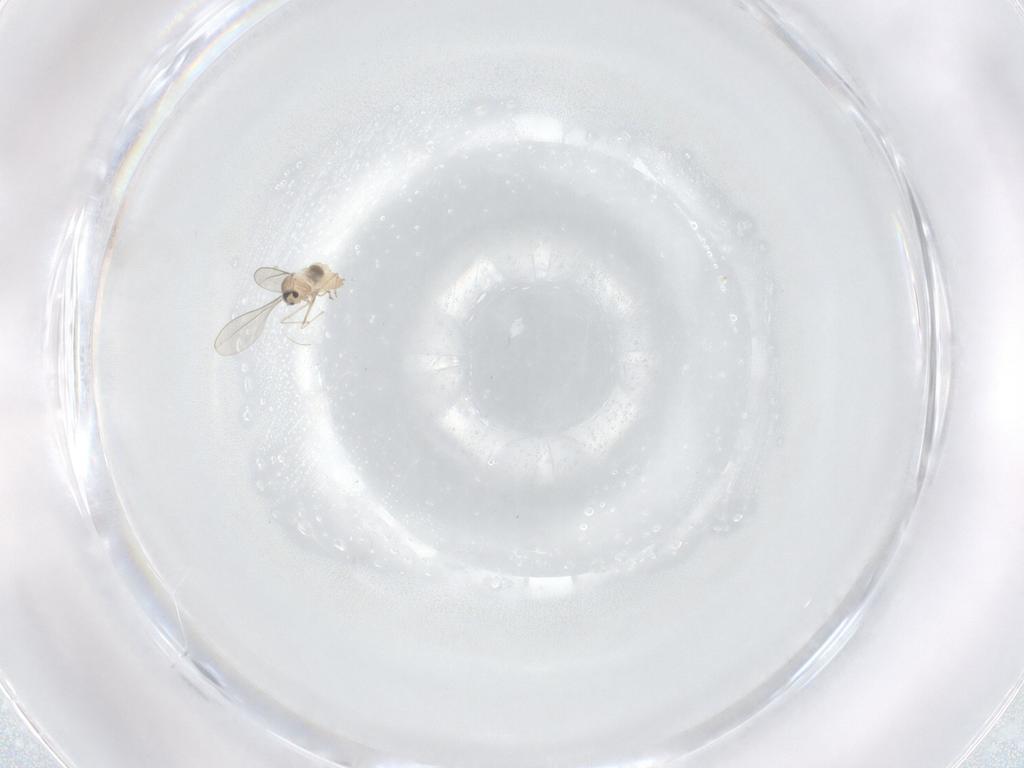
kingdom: Animalia
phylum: Arthropoda
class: Insecta
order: Diptera
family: Cecidomyiidae
